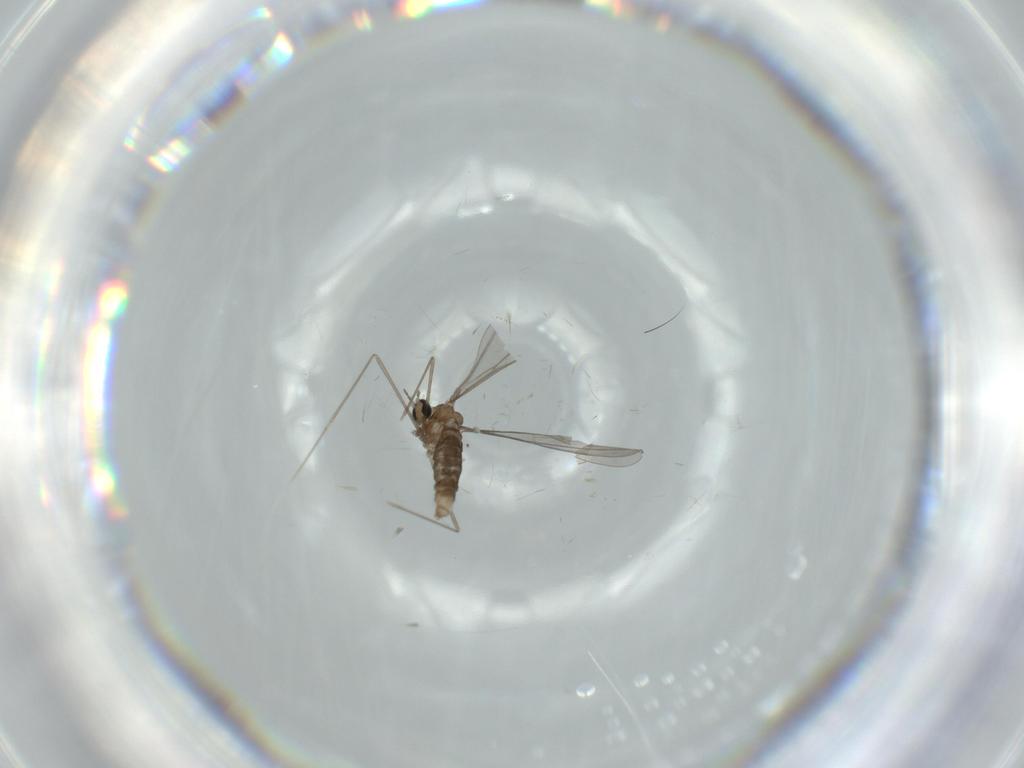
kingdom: Animalia
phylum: Arthropoda
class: Insecta
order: Diptera
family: Cecidomyiidae
